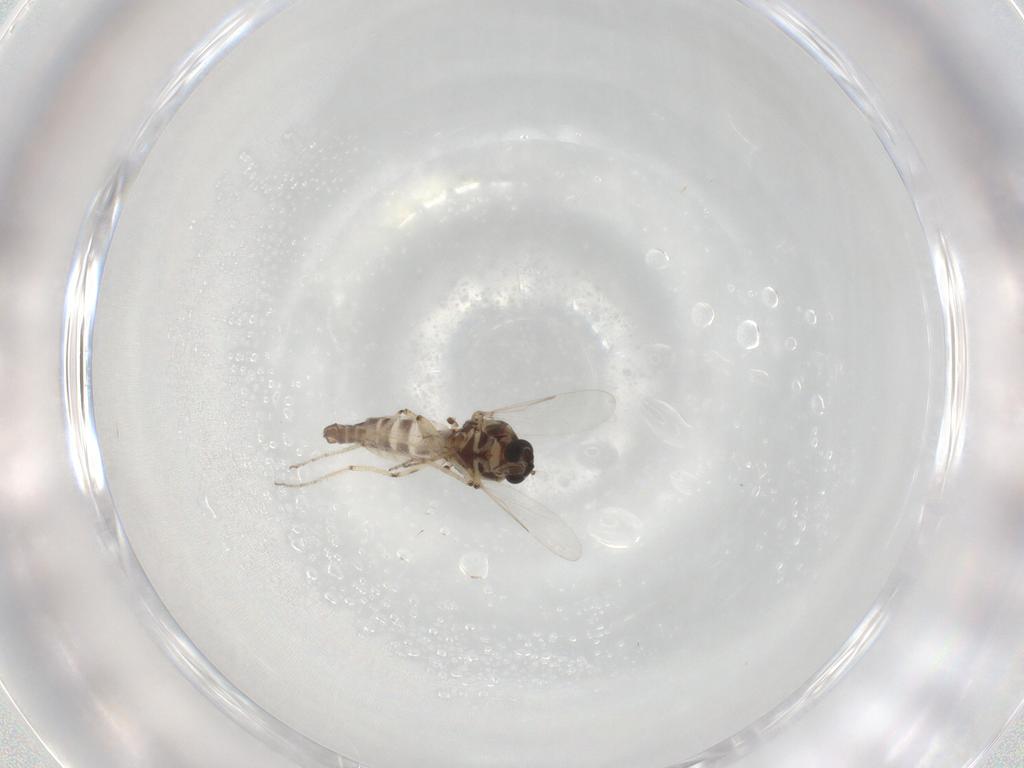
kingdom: Animalia
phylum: Arthropoda
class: Insecta
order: Diptera
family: Ceratopogonidae
